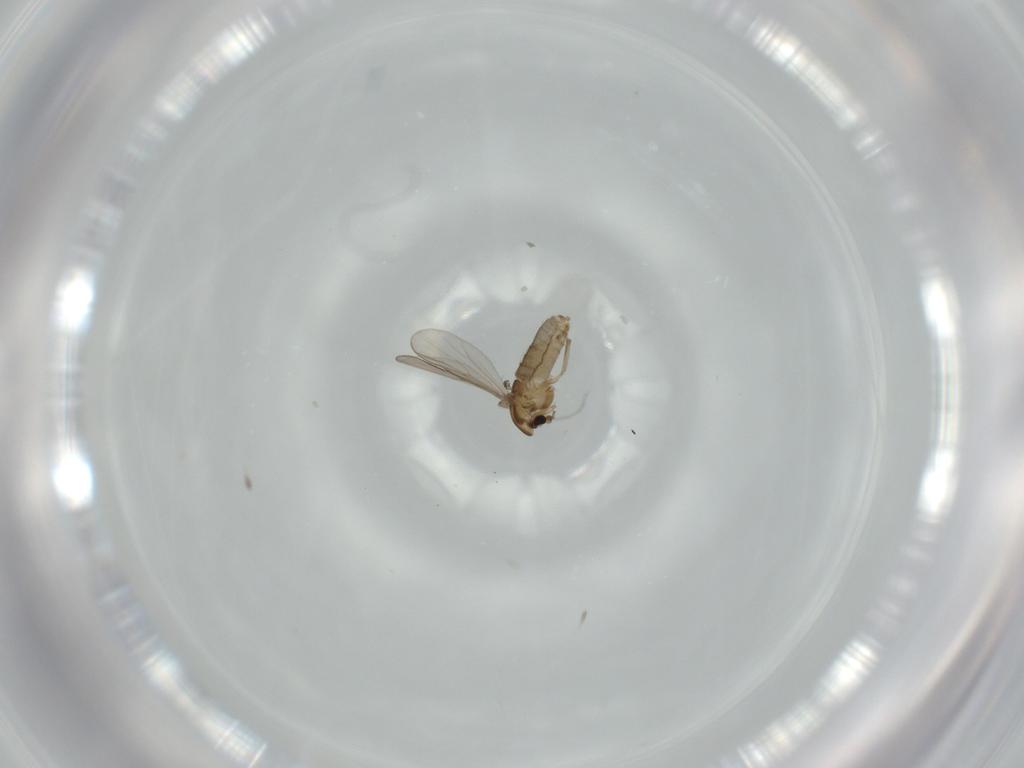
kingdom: Animalia
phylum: Arthropoda
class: Insecta
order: Diptera
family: Chironomidae
